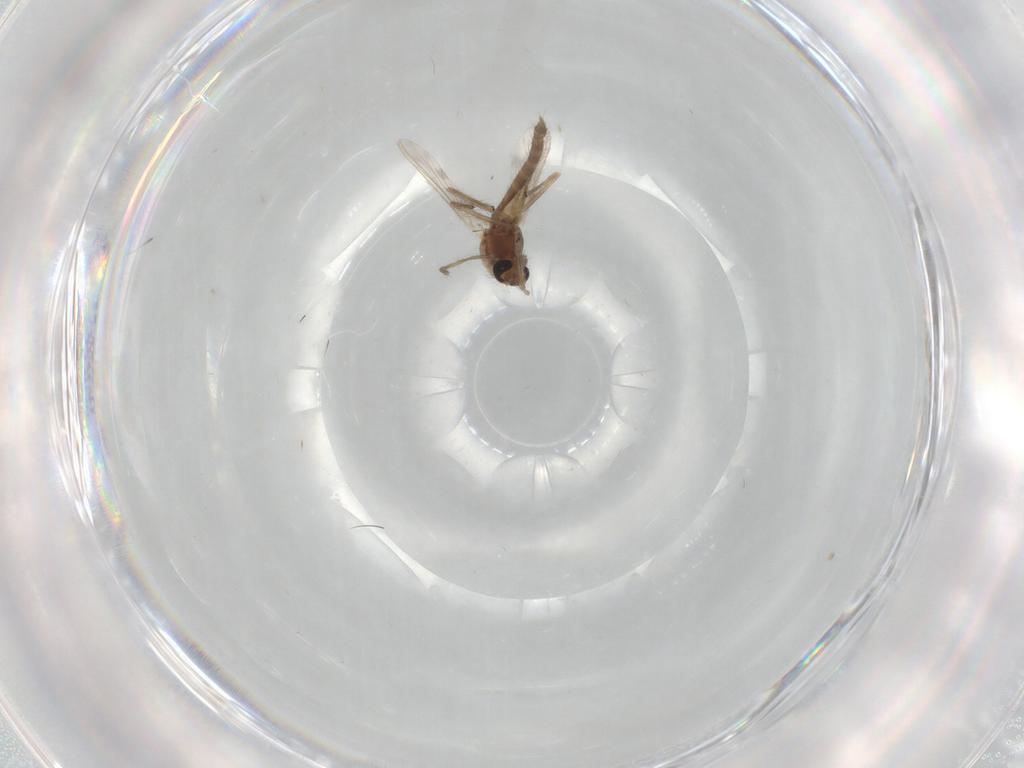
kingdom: Animalia
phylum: Arthropoda
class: Insecta
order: Diptera
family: Chironomidae
